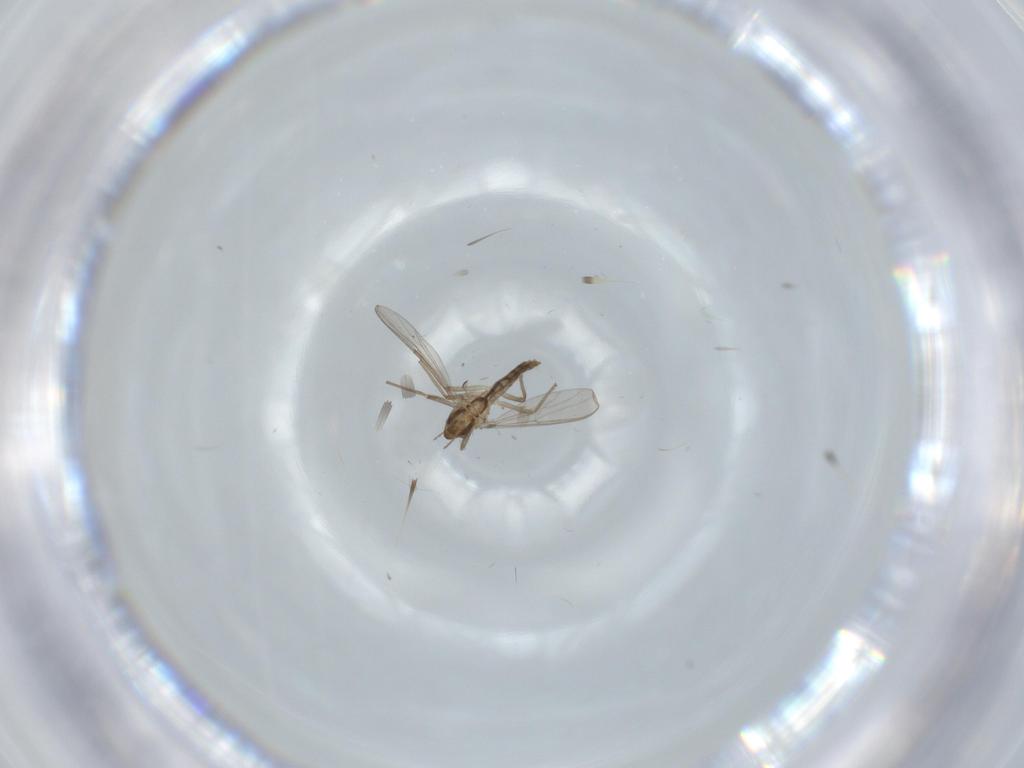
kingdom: Animalia
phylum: Arthropoda
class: Insecta
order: Diptera
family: Chironomidae
